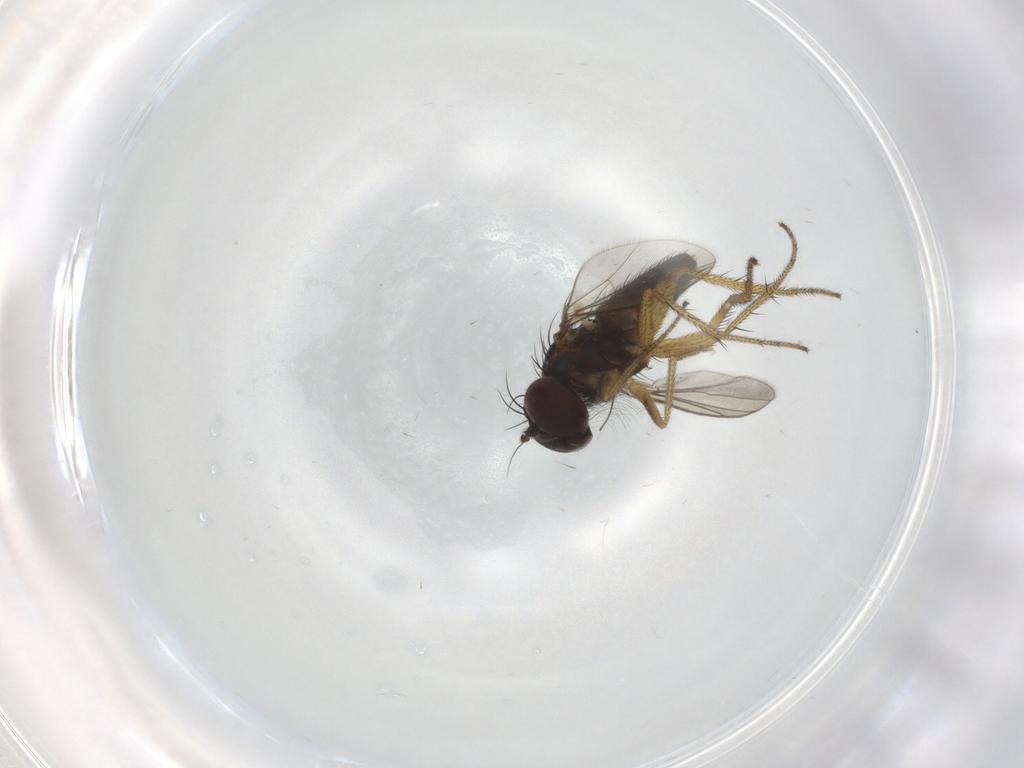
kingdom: Animalia
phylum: Arthropoda
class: Insecta
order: Diptera
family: Chironomidae
